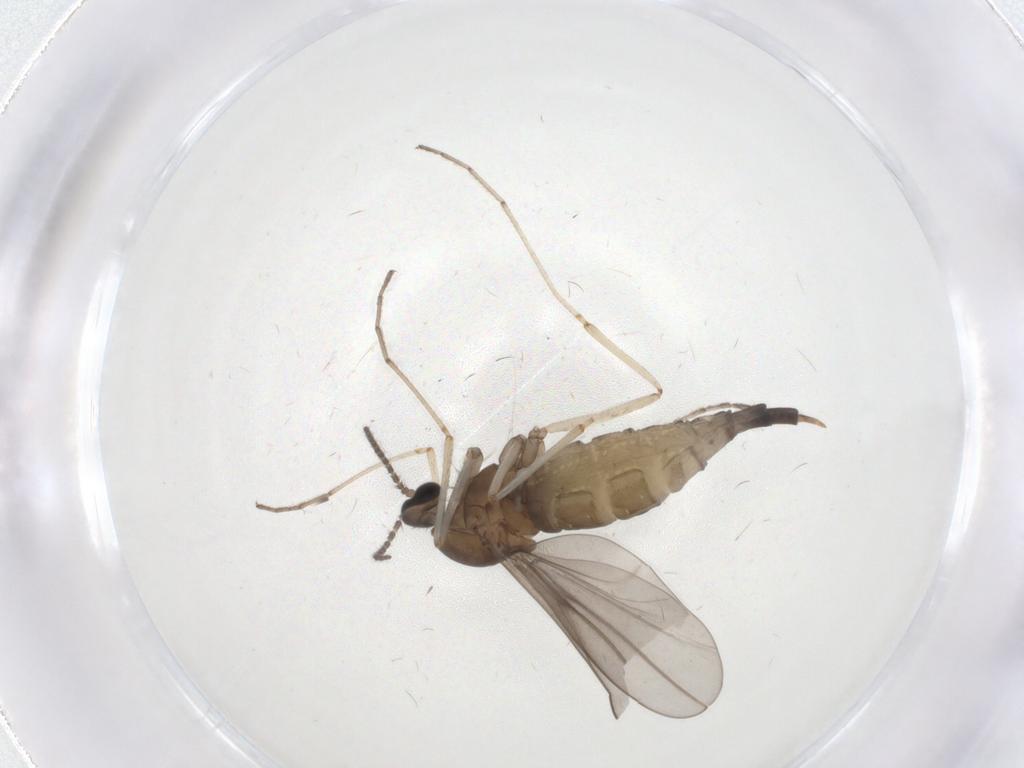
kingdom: Animalia
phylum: Arthropoda
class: Insecta
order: Diptera
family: Cecidomyiidae
